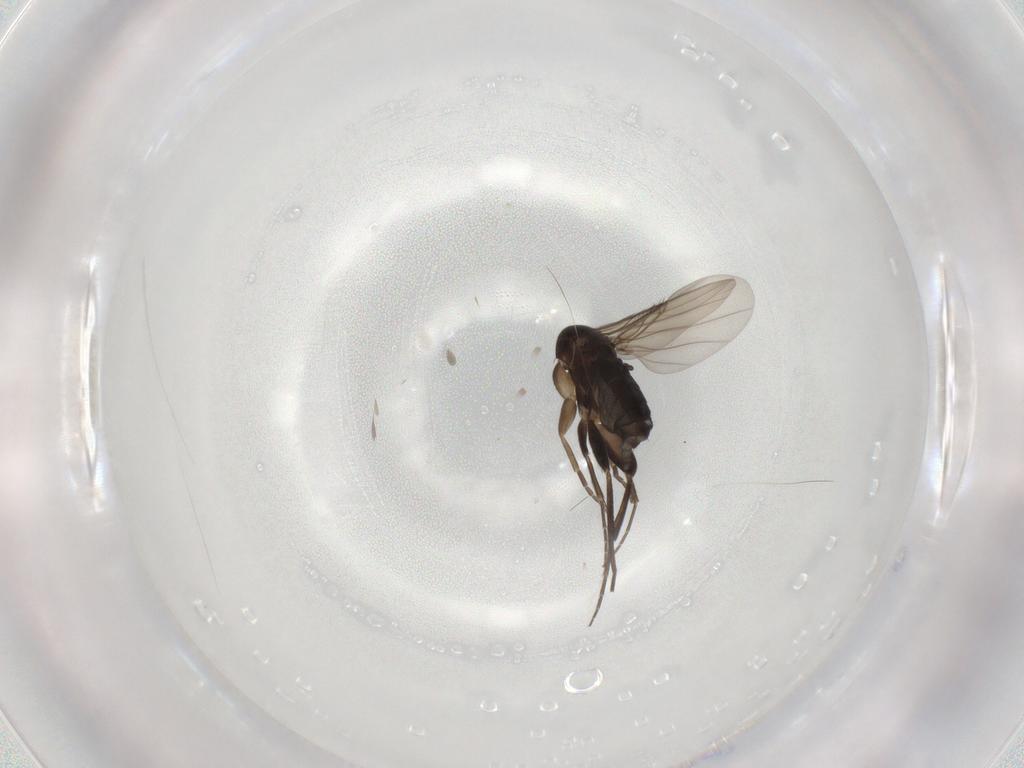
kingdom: Animalia
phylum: Arthropoda
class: Insecta
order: Diptera
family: Phoridae
